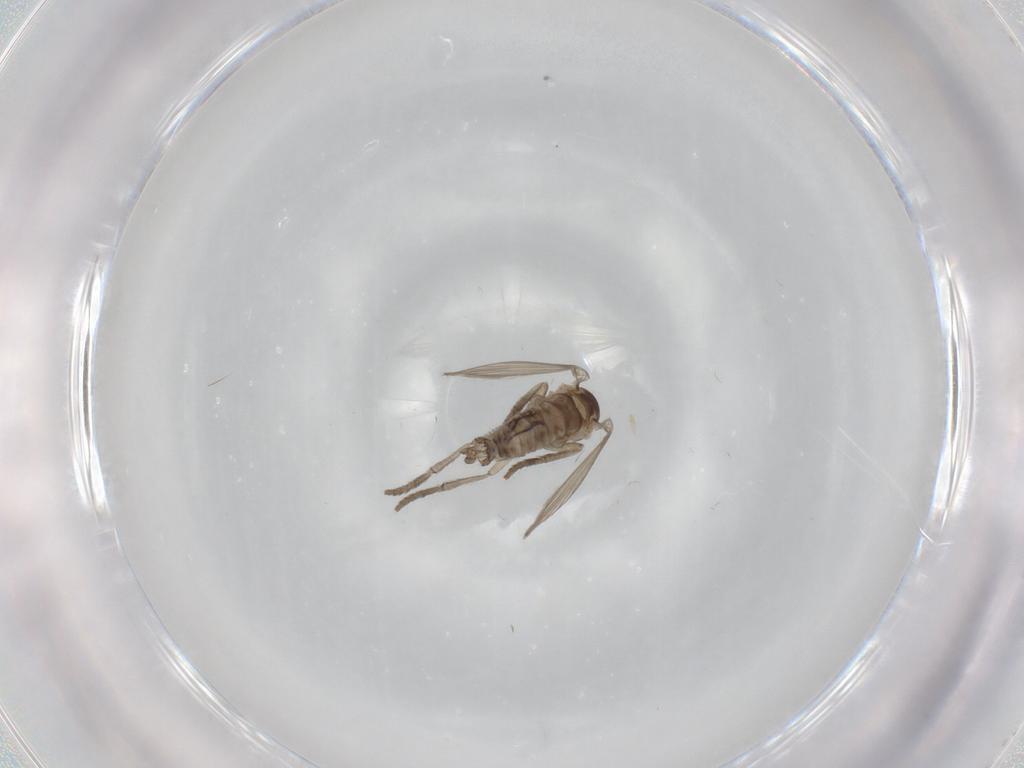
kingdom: Animalia
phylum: Arthropoda
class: Insecta
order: Diptera
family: Psychodidae
